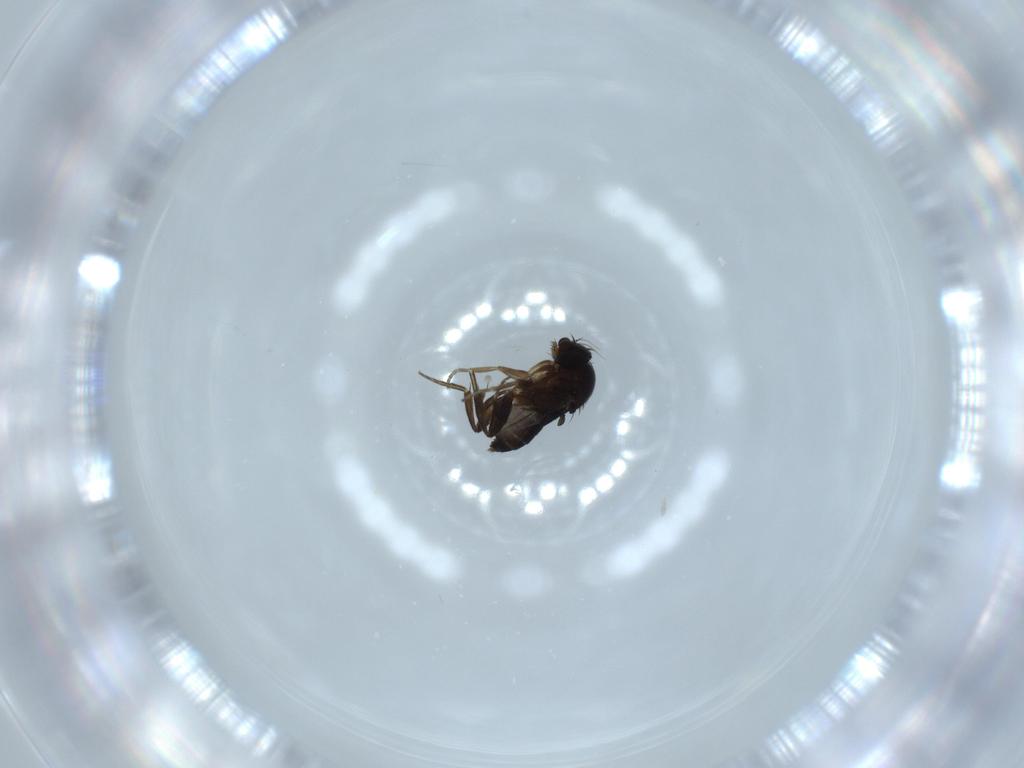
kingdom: Animalia
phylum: Arthropoda
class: Insecta
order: Diptera
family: Phoridae
